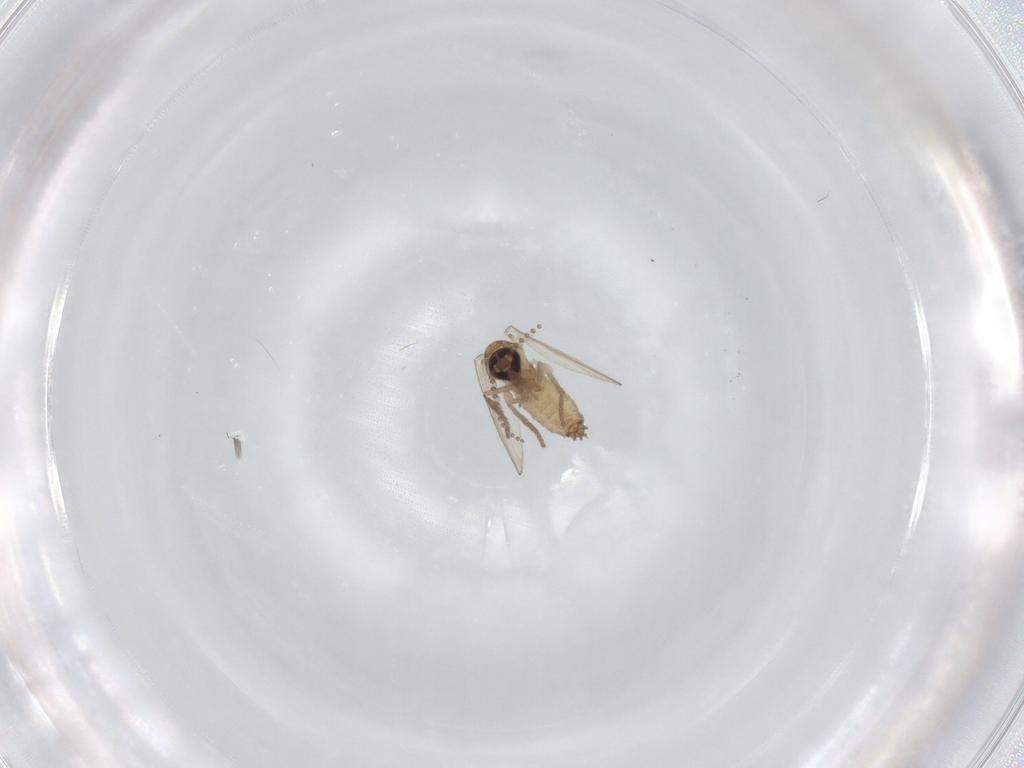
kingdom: Animalia
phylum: Arthropoda
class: Insecta
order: Diptera
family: Psychodidae
